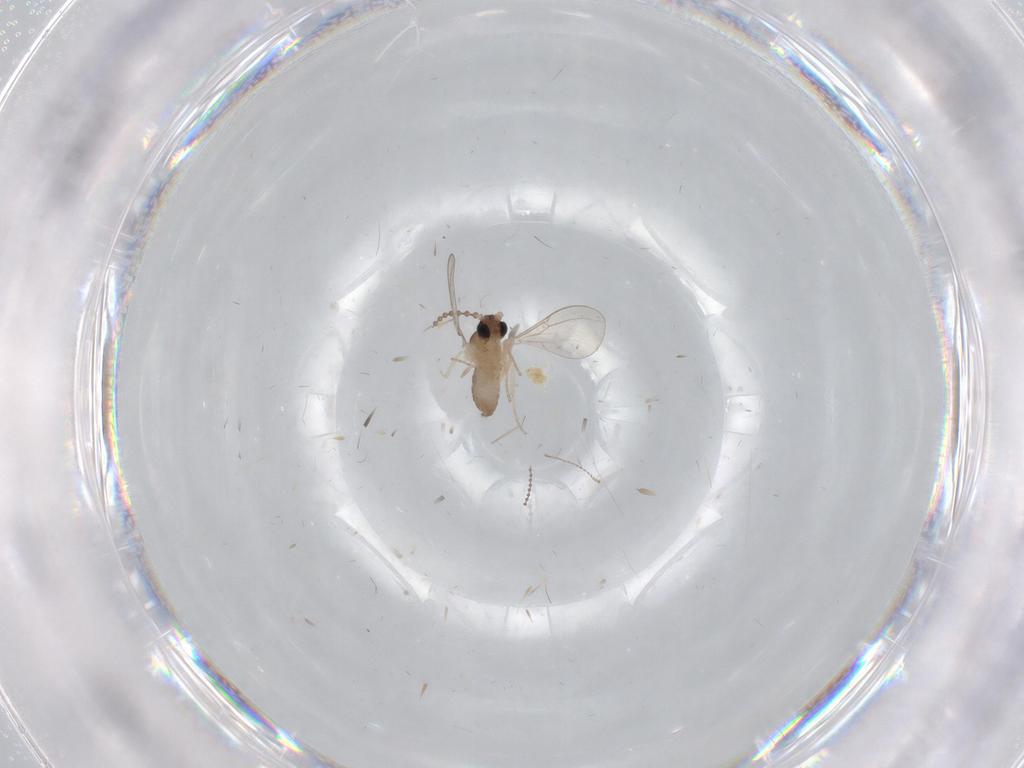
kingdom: Animalia
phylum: Arthropoda
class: Insecta
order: Diptera
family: Cecidomyiidae
